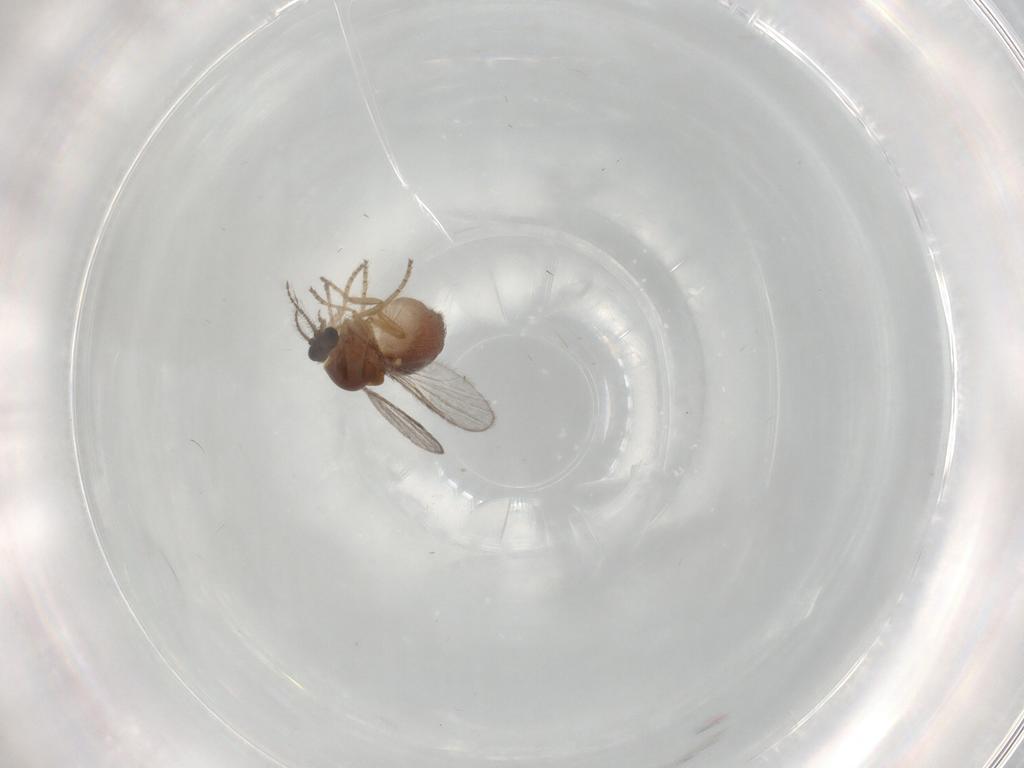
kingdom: Animalia
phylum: Arthropoda
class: Insecta
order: Diptera
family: Ceratopogonidae
